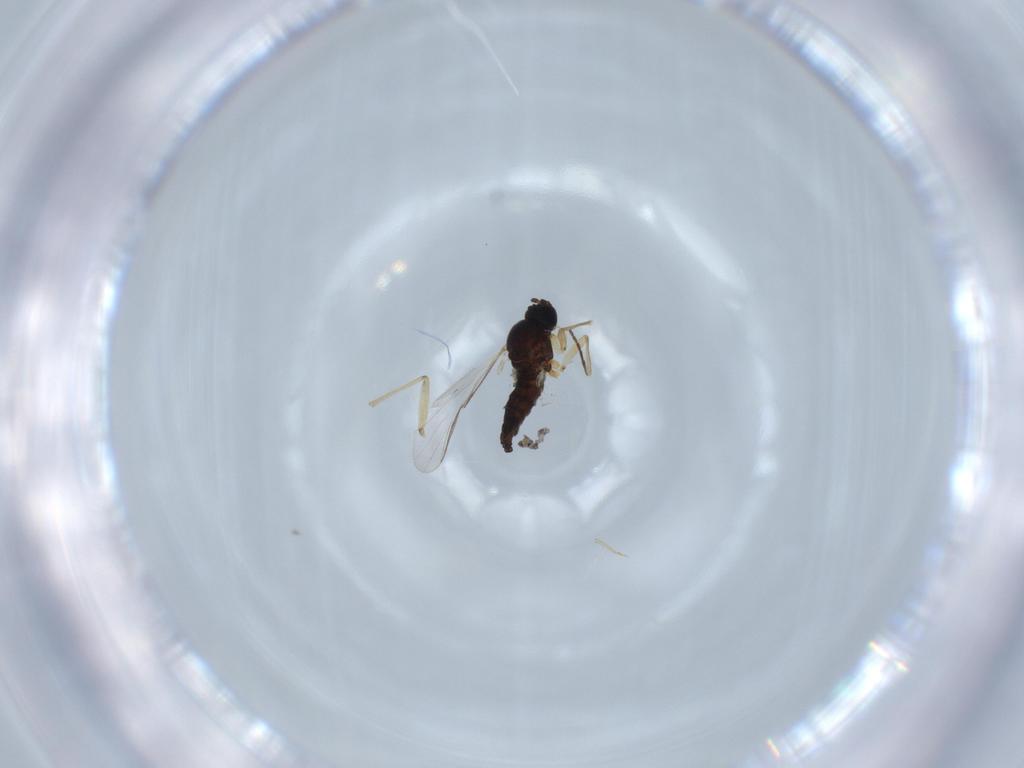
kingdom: Animalia
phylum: Arthropoda
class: Insecta
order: Diptera
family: Sciaridae
